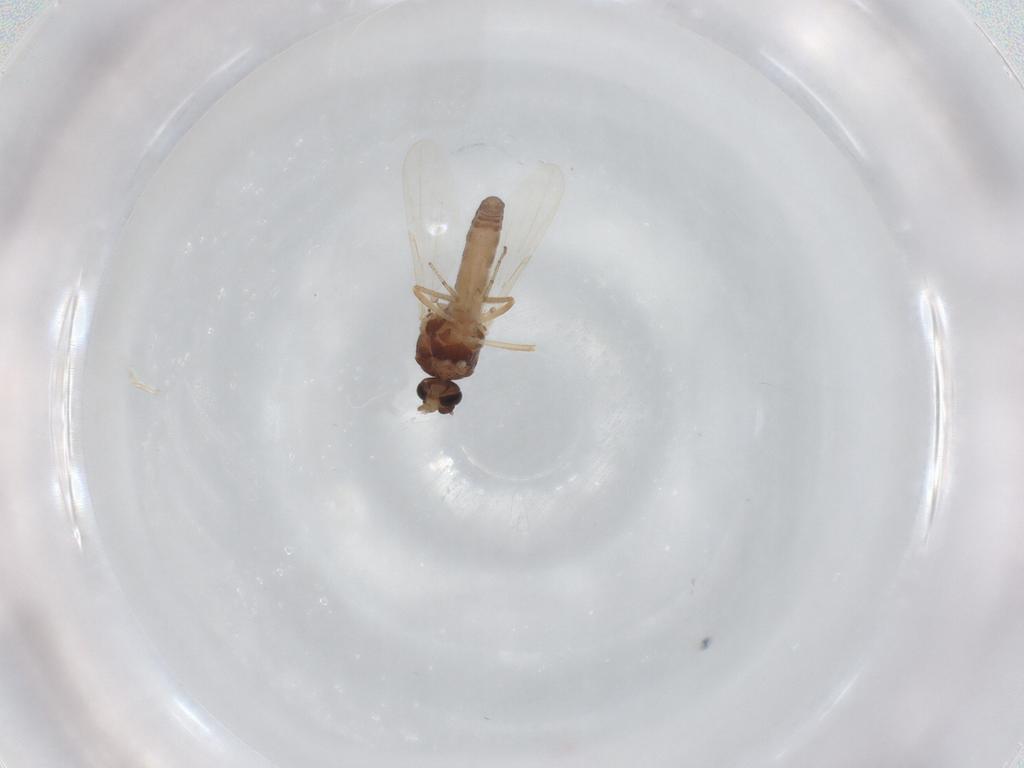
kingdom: Animalia
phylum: Arthropoda
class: Insecta
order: Diptera
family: Ceratopogonidae
